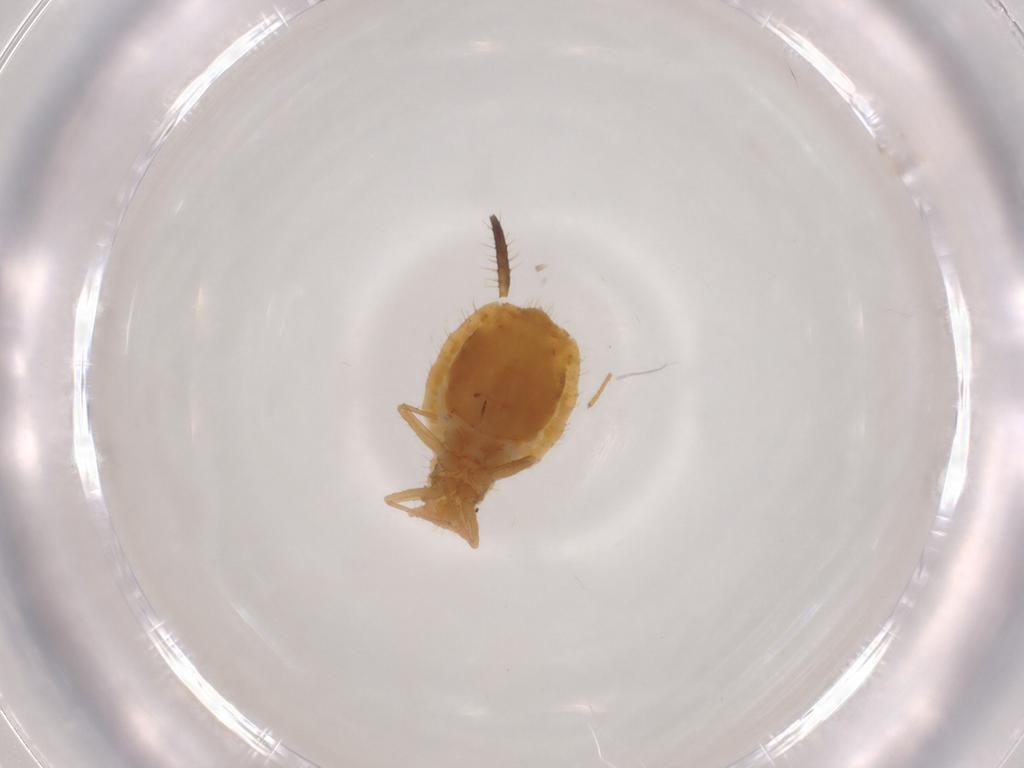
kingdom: Animalia
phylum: Arthropoda
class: Insecta
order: Hemiptera
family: Aphididae
